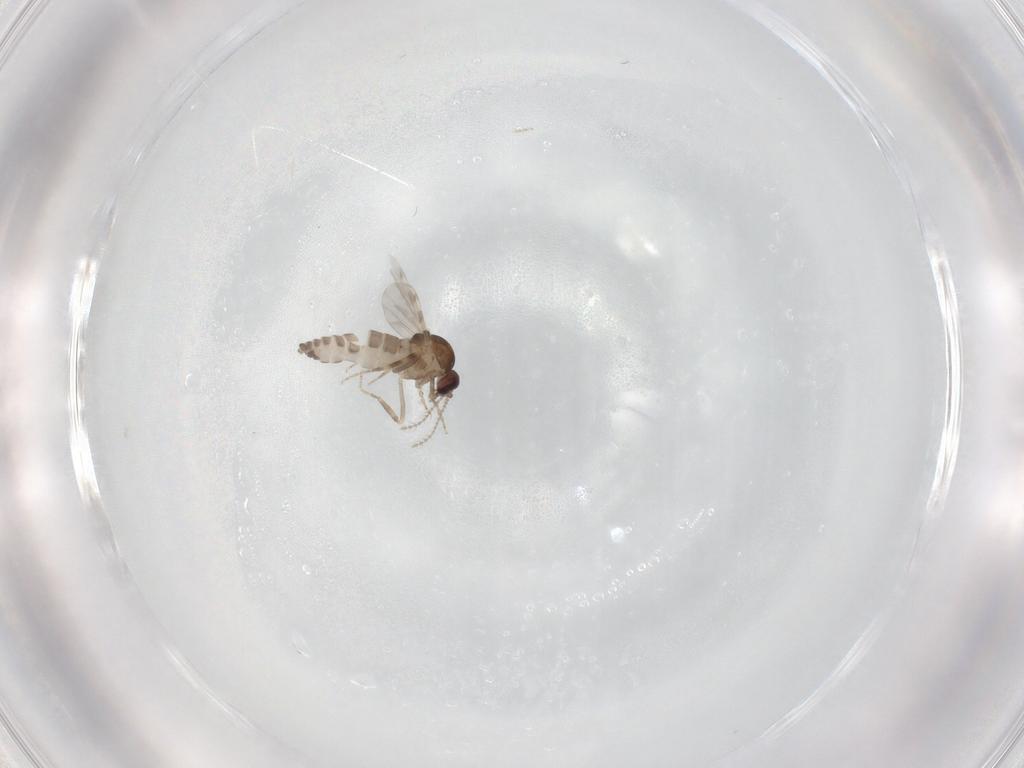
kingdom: Animalia
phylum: Arthropoda
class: Insecta
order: Diptera
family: Ceratopogonidae
